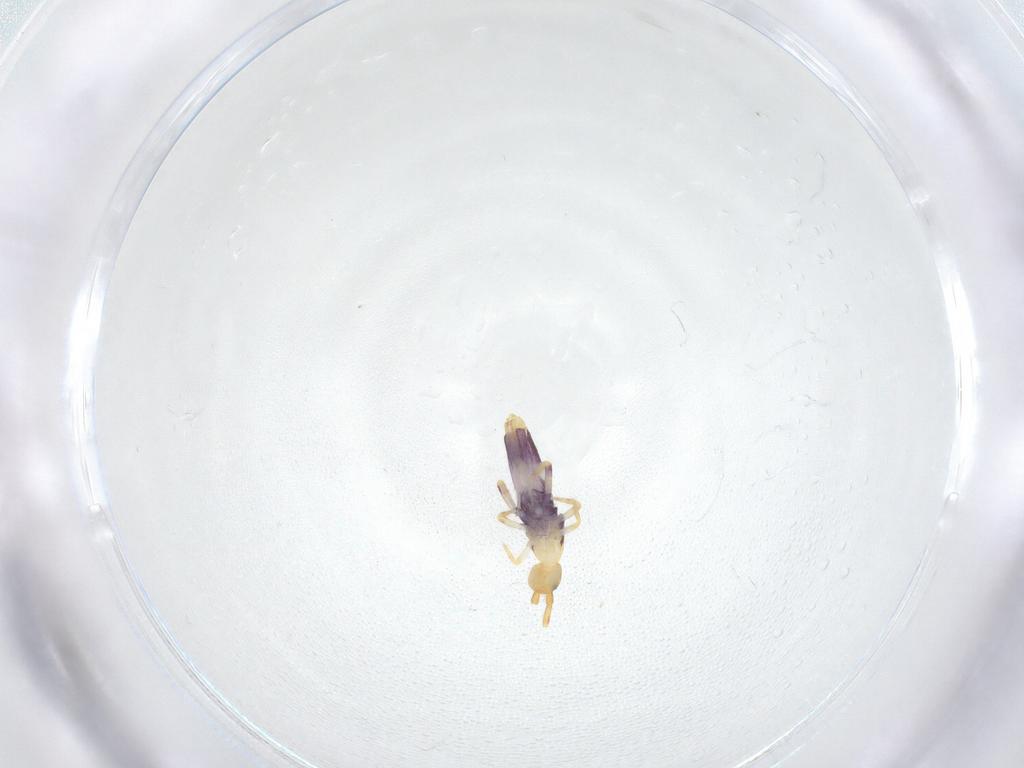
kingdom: Animalia
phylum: Arthropoda
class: Collembola
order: Entomobryomorpha
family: Entomobryidae
